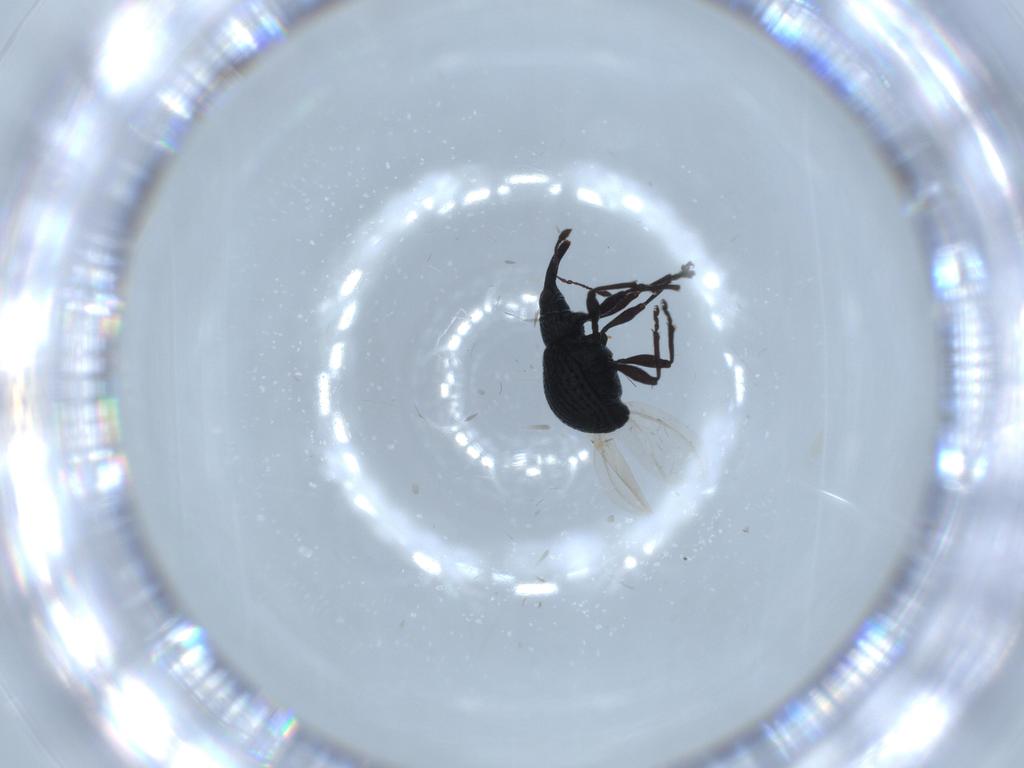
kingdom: Animalia
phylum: Arthropoda
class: Insecta
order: Coleoptera
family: Brentidae
